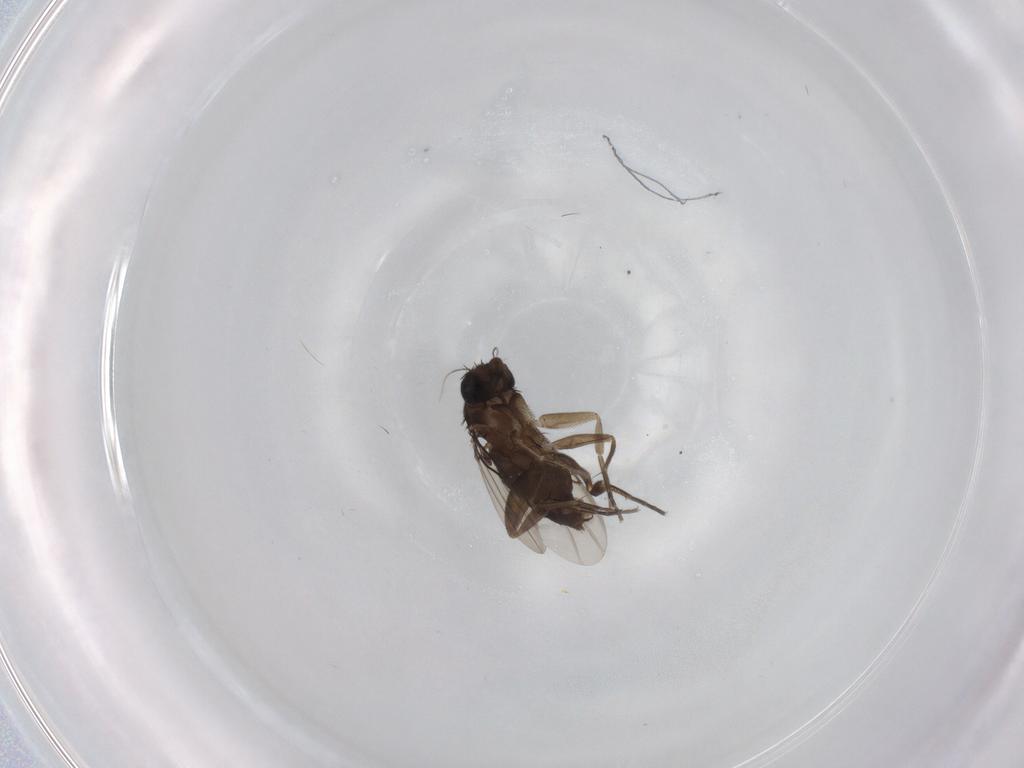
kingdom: Animalia
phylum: Arthropoda
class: Insecta
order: Diptera
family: Phoridae
